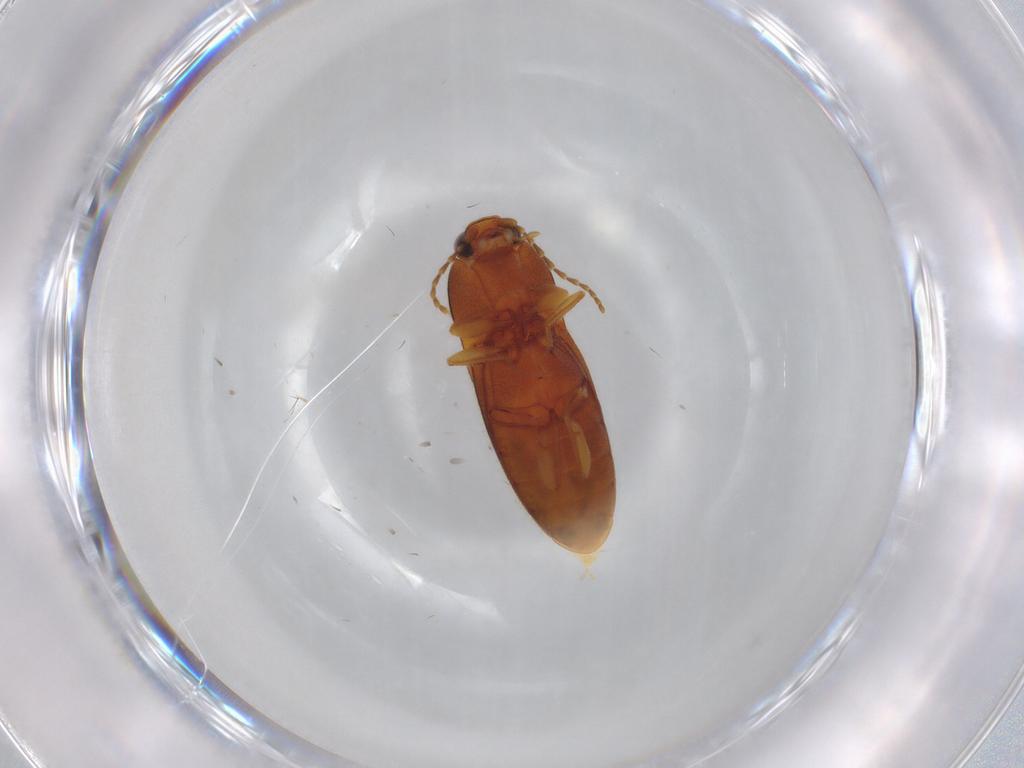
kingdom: Animalia
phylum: Arthropoda
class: Insecta
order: Coleoptera
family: Elateridae
